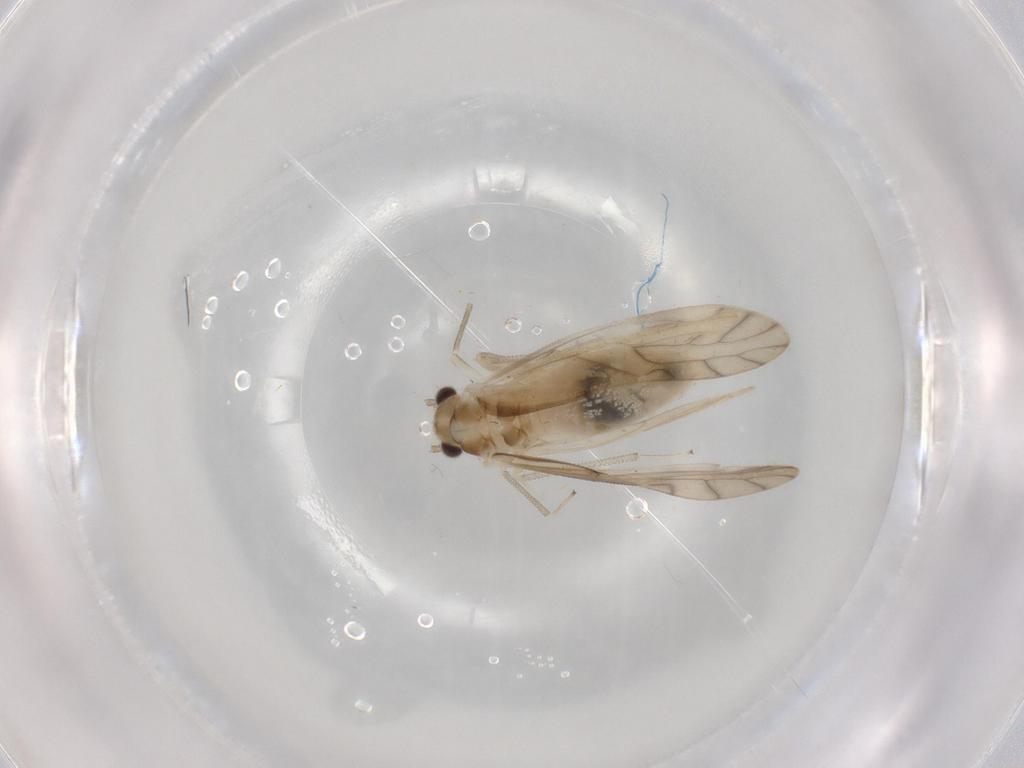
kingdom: Animalia
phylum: Arthropoda
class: Insecta
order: Psocodea
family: Caeciliusidae
